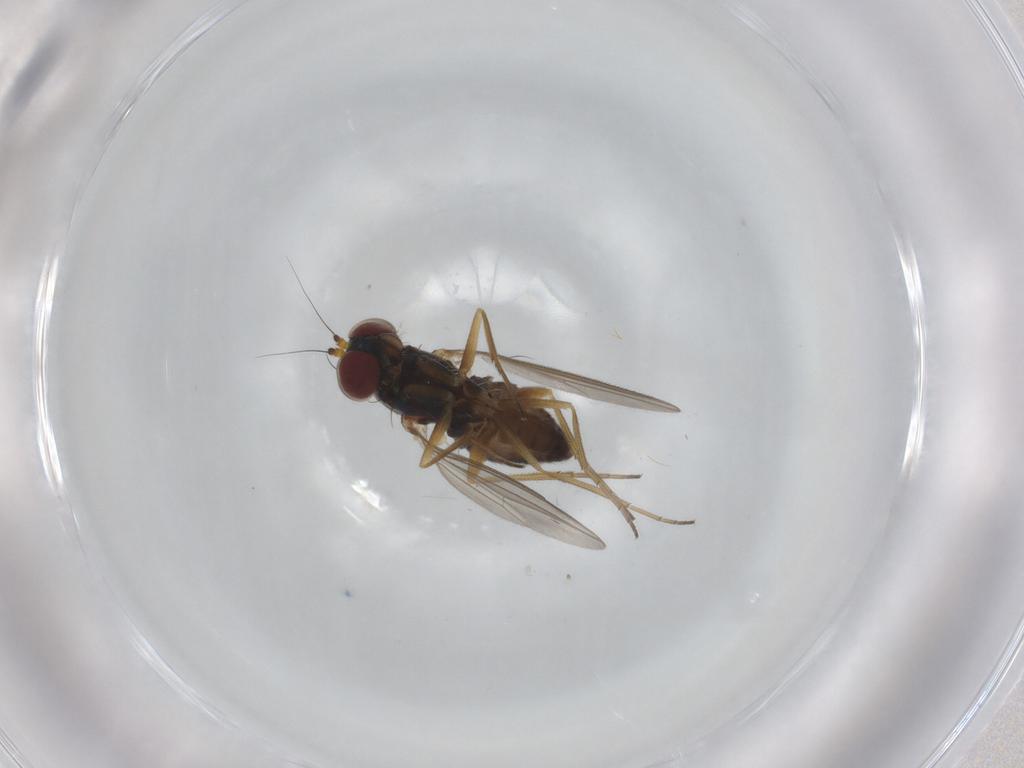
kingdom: Animalia
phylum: Arthropoda
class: Insecta
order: Diptera
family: Dolichopodidae
